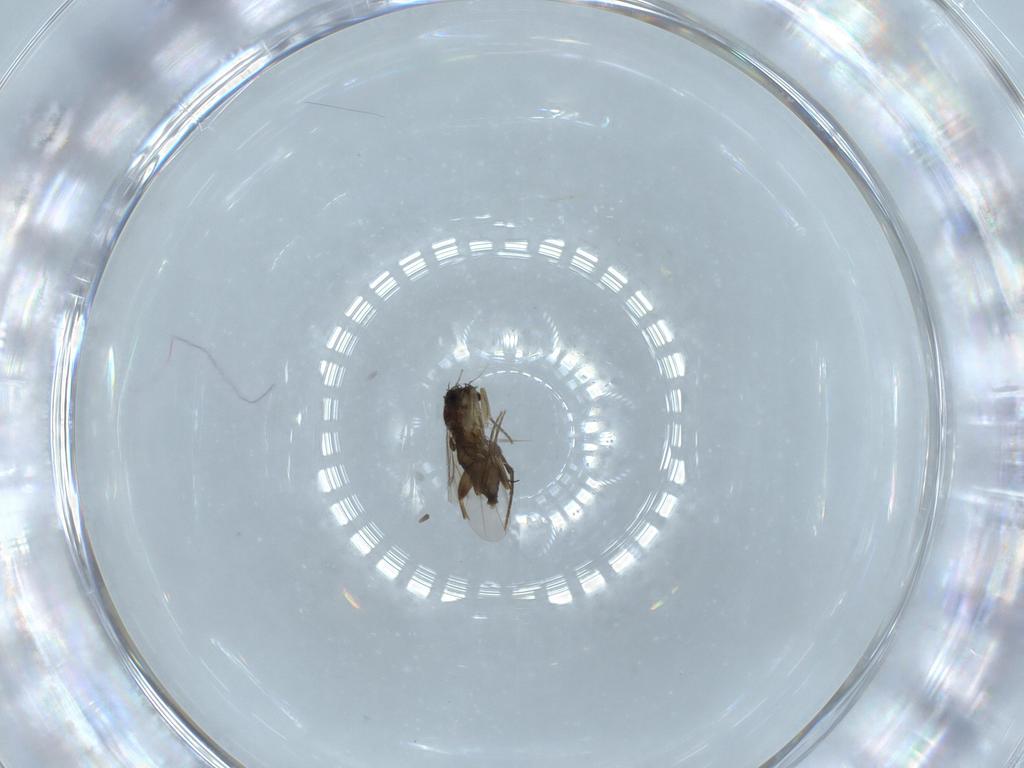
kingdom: Animalia
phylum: Arthropoda
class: Insecta
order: Diptera
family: Phoridae
